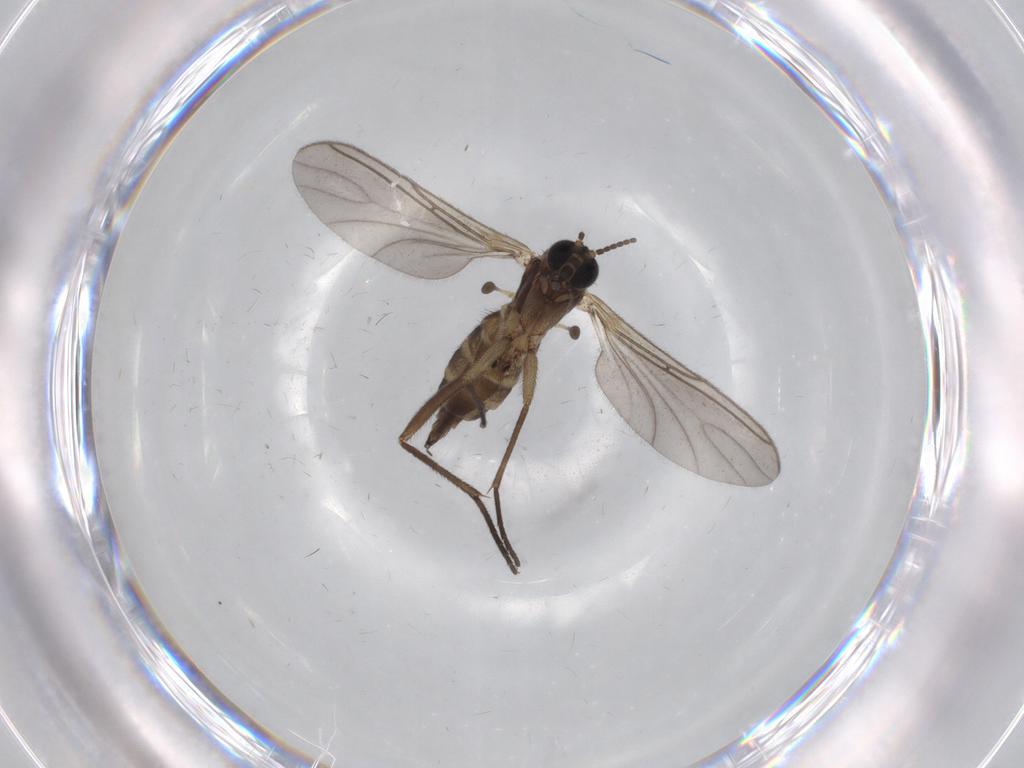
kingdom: Animalia
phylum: Arthropoda
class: Insecta
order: Diptera
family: Sciaridae
